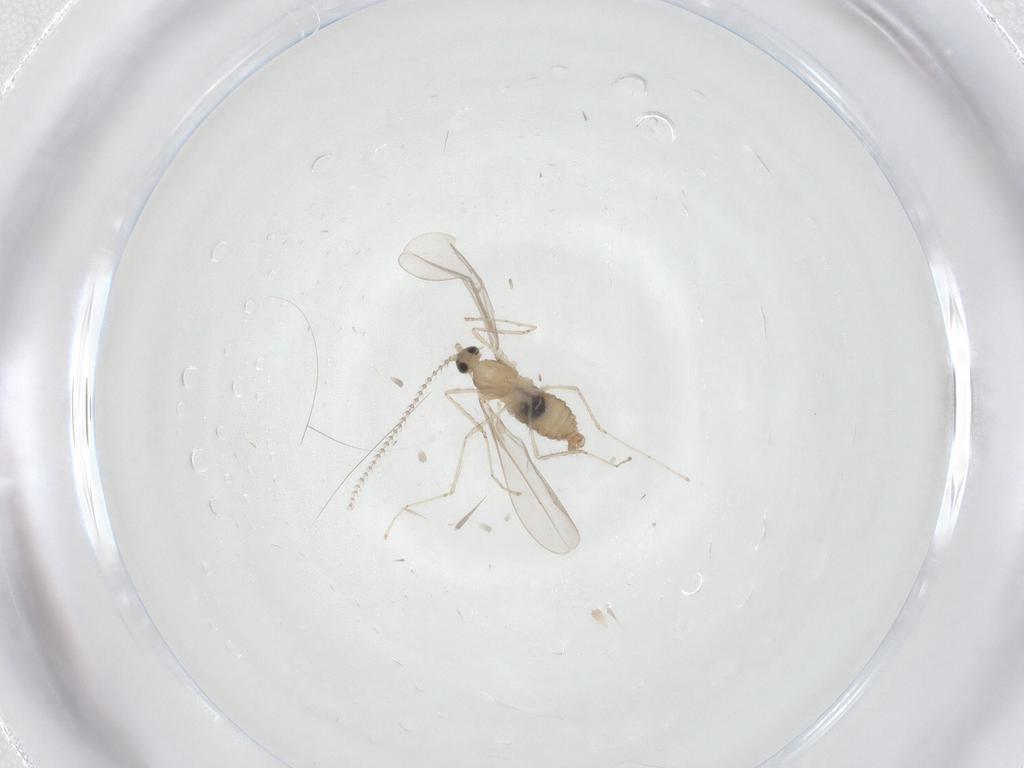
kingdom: Animalia
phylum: Arthropoda
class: Insecta
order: Diptera
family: Cecidomyiidae
